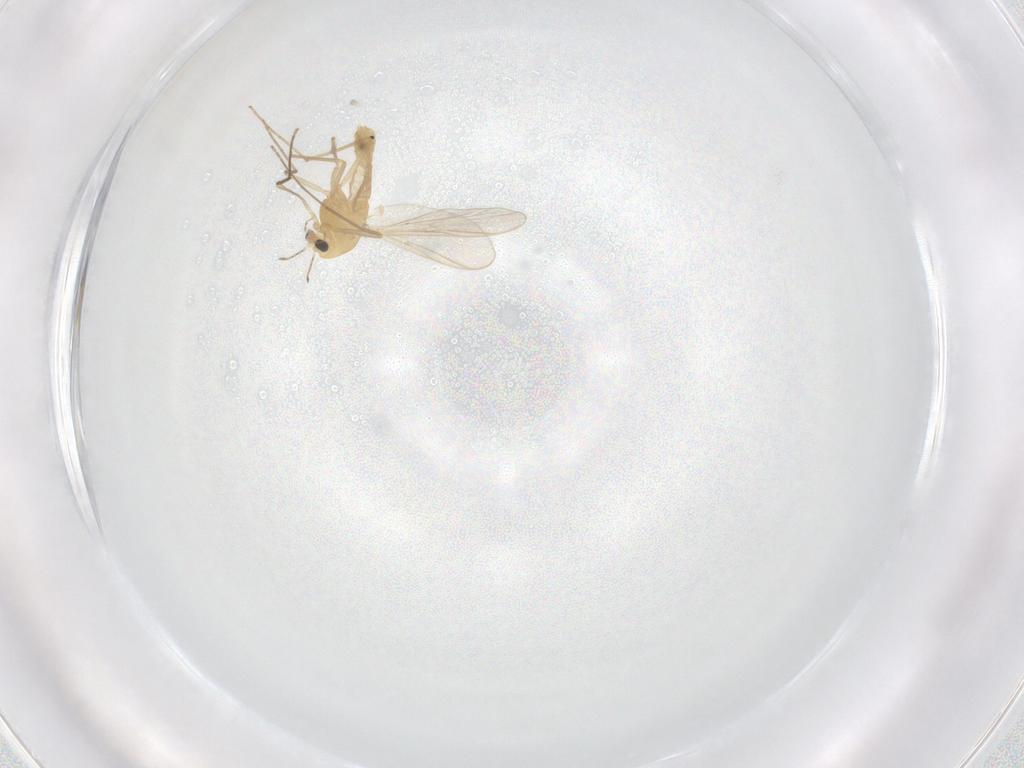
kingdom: Animalia
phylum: Arthropoda
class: Insecta
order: Diptera
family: Chironomidae
